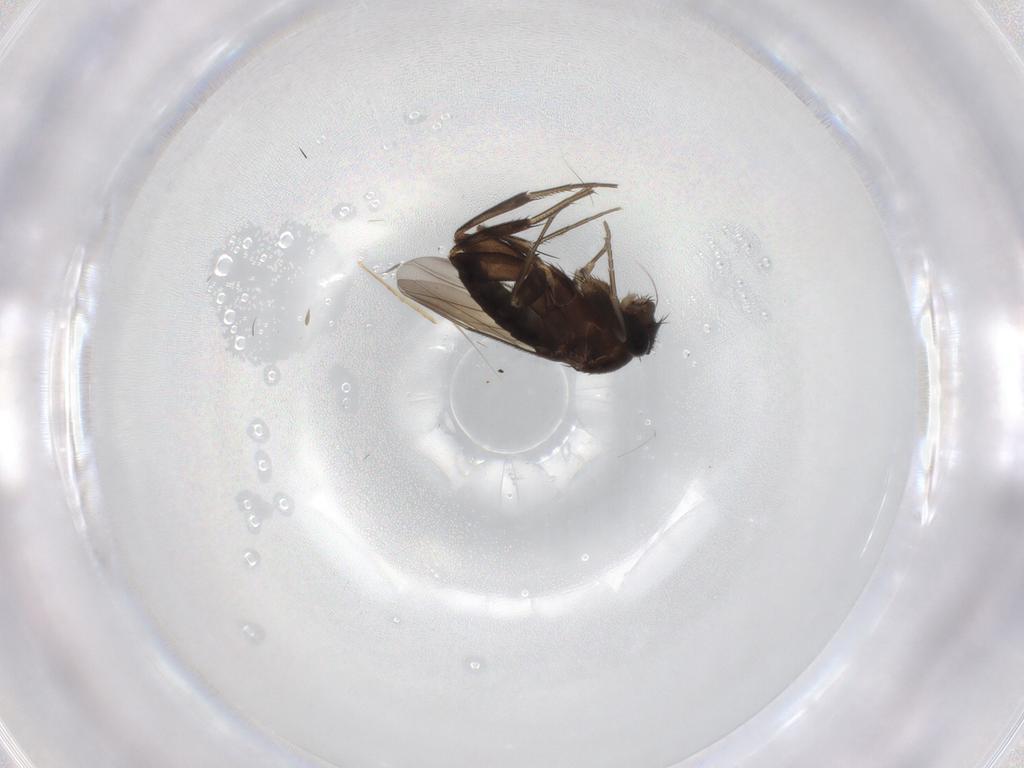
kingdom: Animalia
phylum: Arthropoda
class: Insecta
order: Diptera
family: Phoridae
